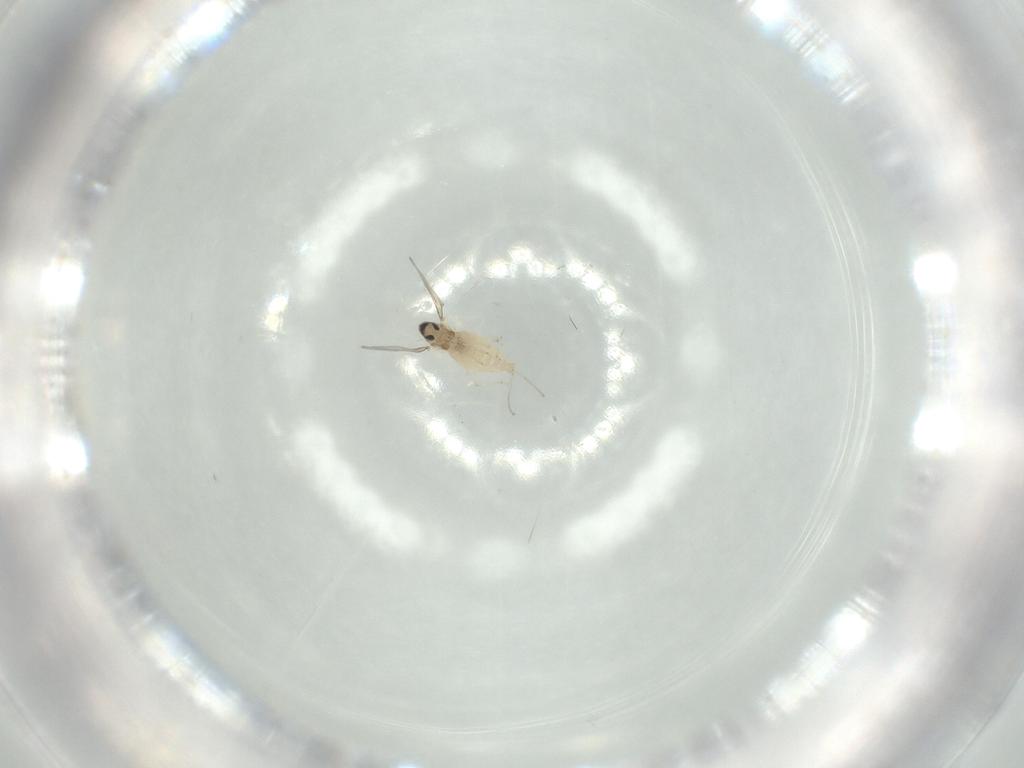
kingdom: Animalia
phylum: Arthropoda
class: Insecta
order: Diptera
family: Cecidomyiidae
